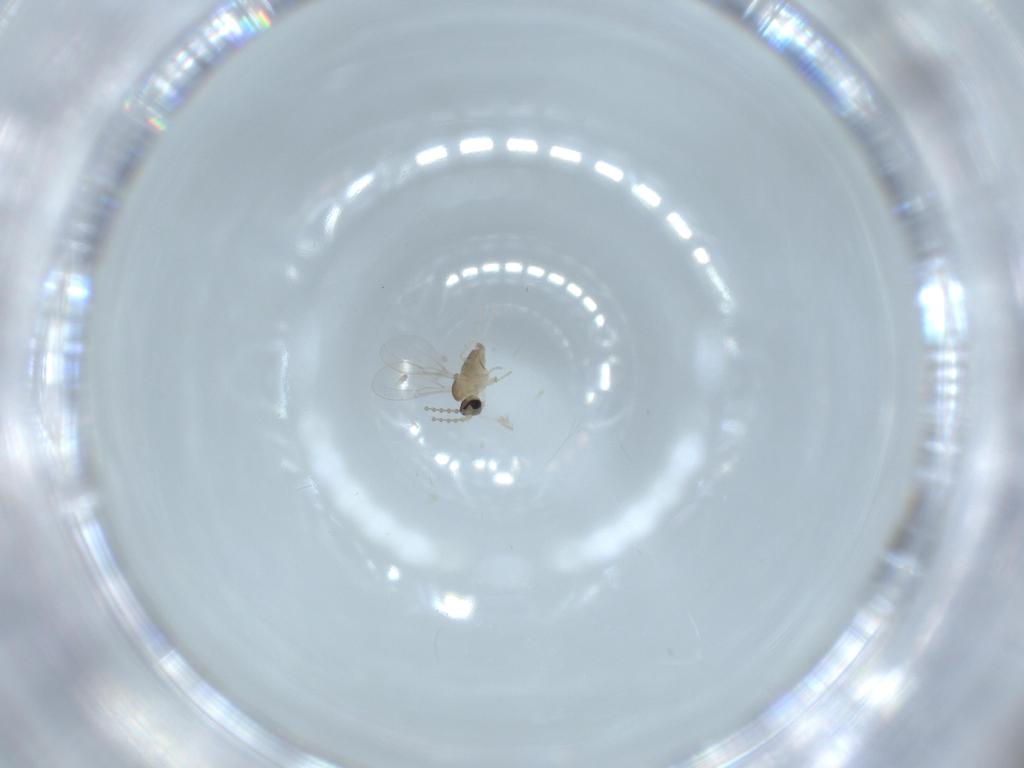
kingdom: Animalia
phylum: Arthropoda
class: Insecta
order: Diptera
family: Cecidomyiidae
